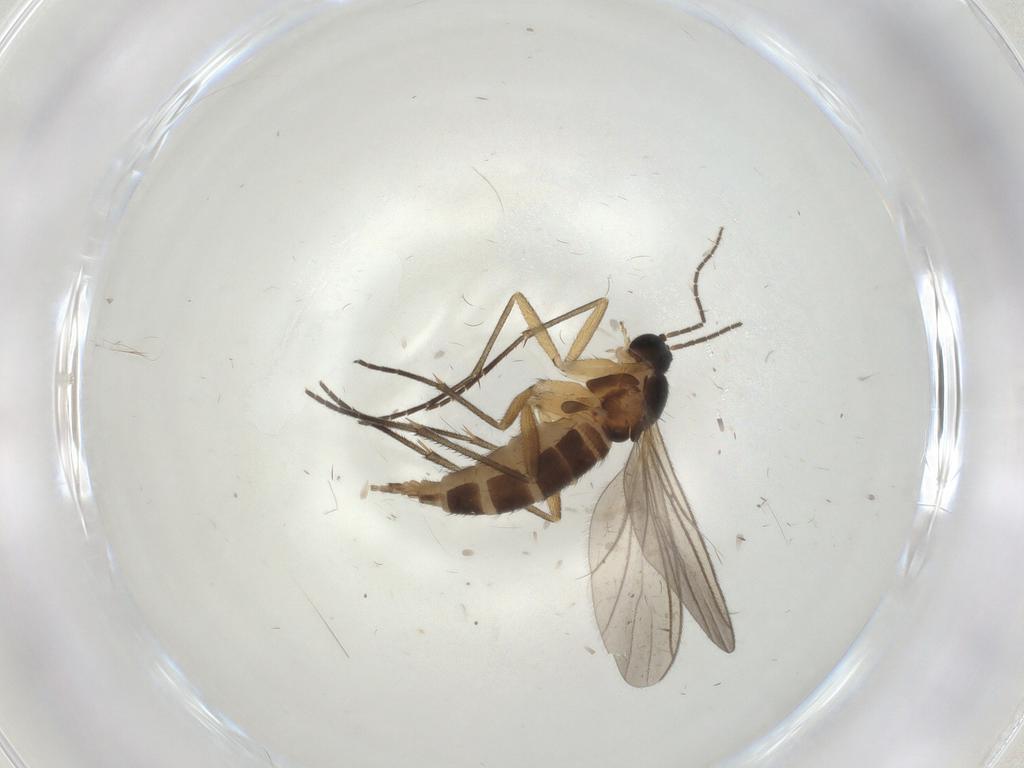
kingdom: Animalia
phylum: Arthropoda
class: Insecta
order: Diptera
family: Sciaridae
